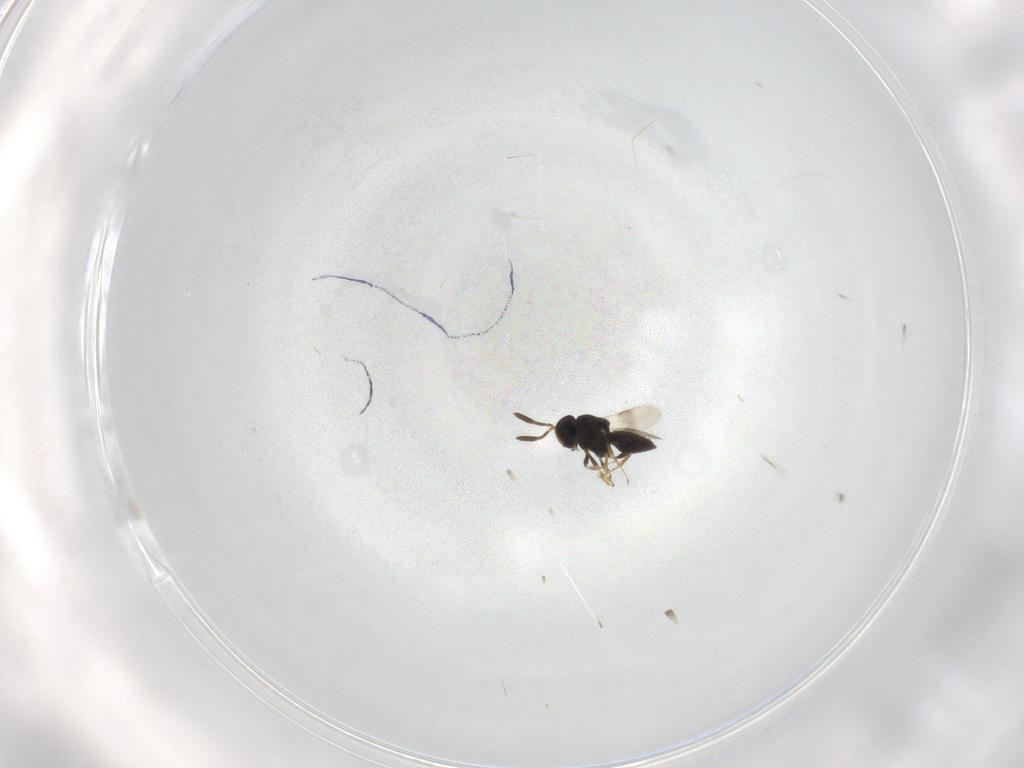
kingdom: Animalia
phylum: Arthropoda
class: Insecta
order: Hymenoptera
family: Scelionidae
